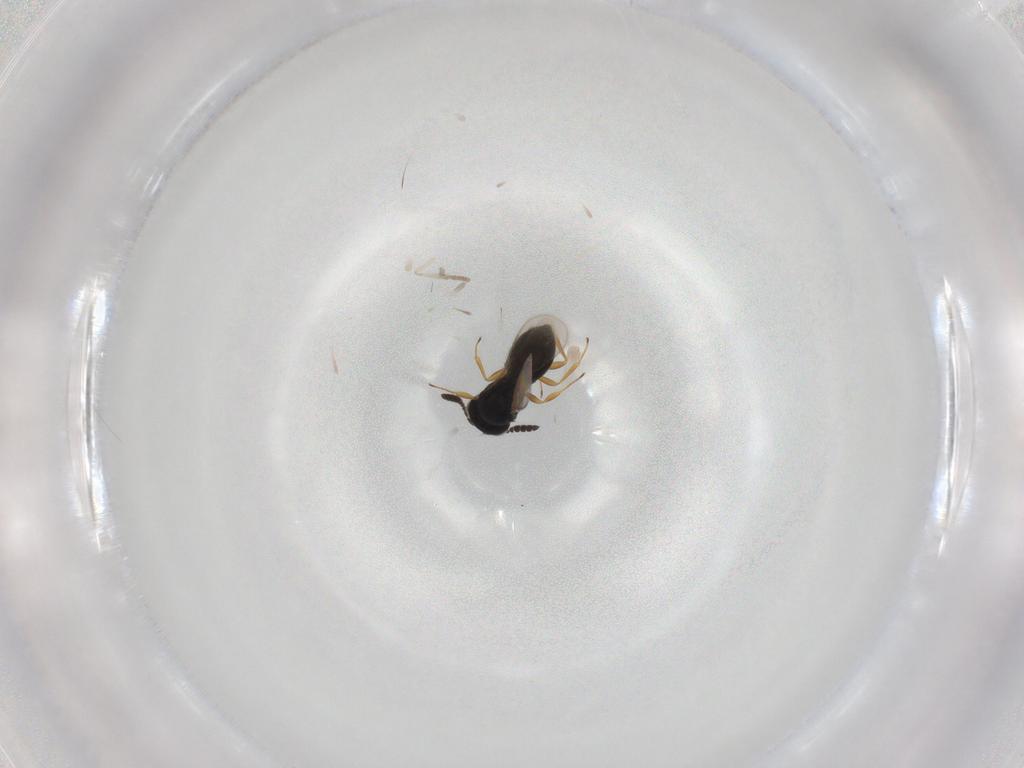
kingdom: Animalia
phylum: Arthropoda
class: Insecta
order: Hymenoptera
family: Scelionidae
